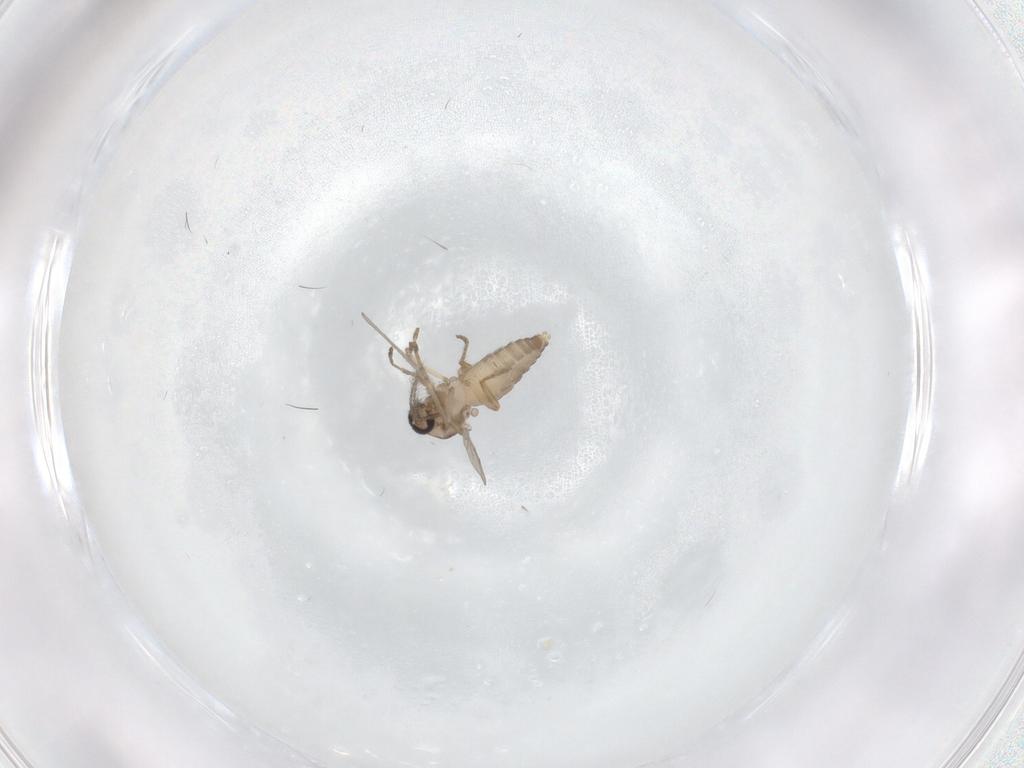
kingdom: Animalia
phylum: Arthropoda
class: Insecta
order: Diptera
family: Ceratopogonidae
